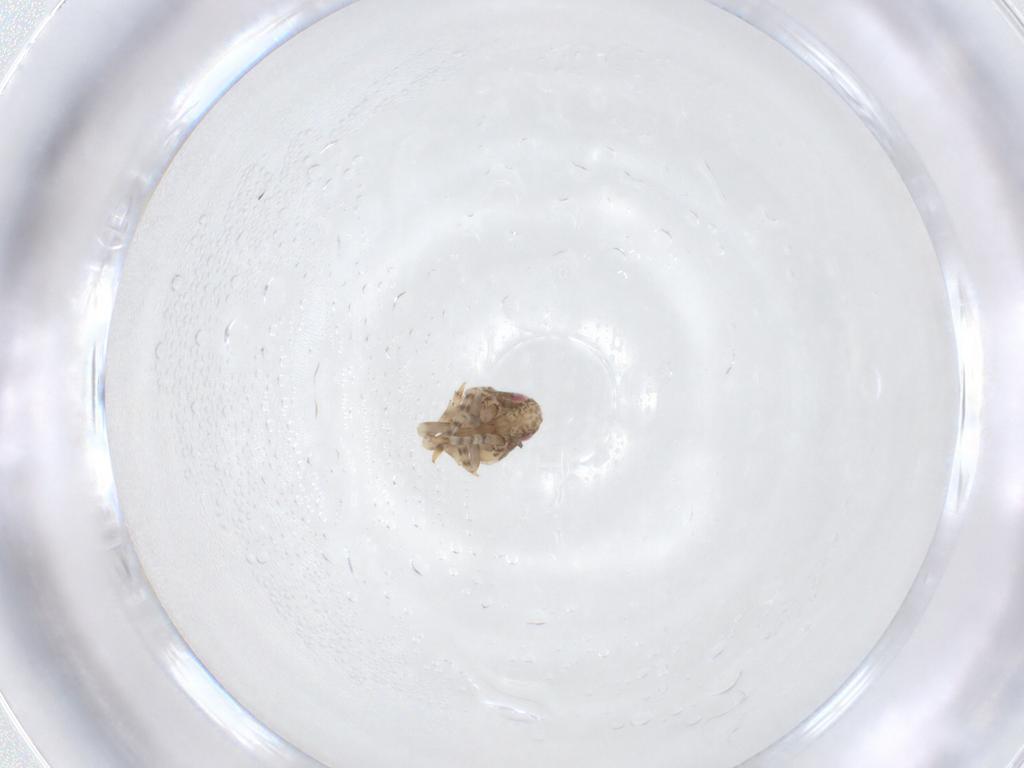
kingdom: Animalia
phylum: Arthropoda
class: Insecta
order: Hemiptera
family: Acanaloniidae
